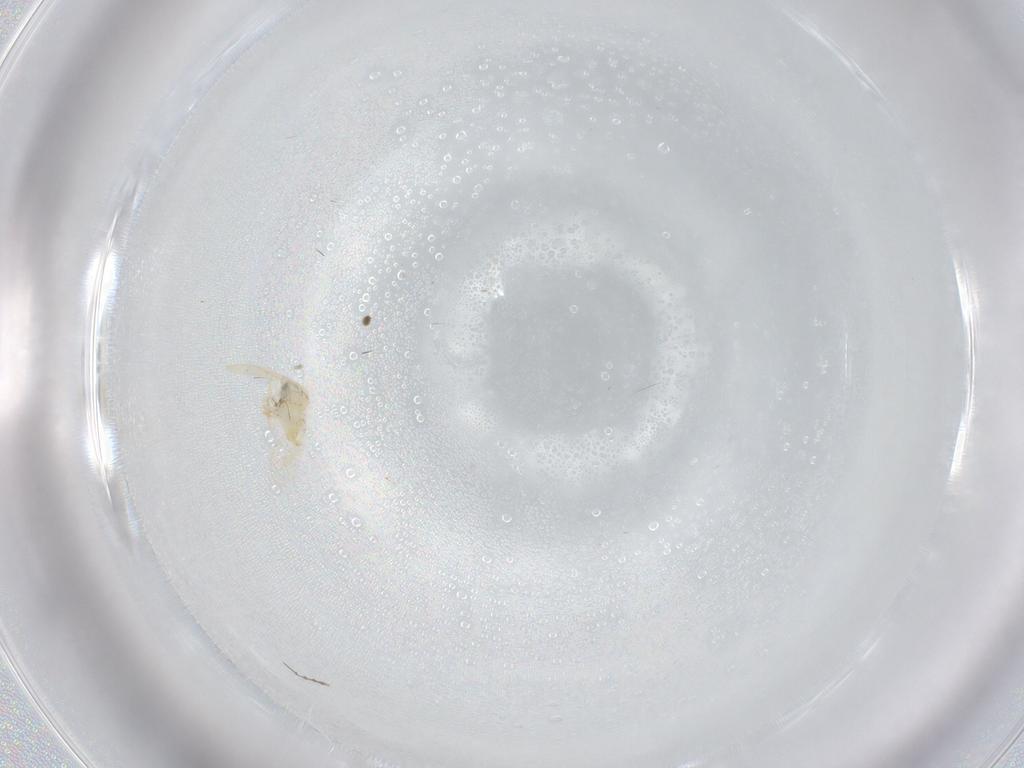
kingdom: Animalia
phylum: Arthropoda
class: Insecta
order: Diptera
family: Chironomidae
